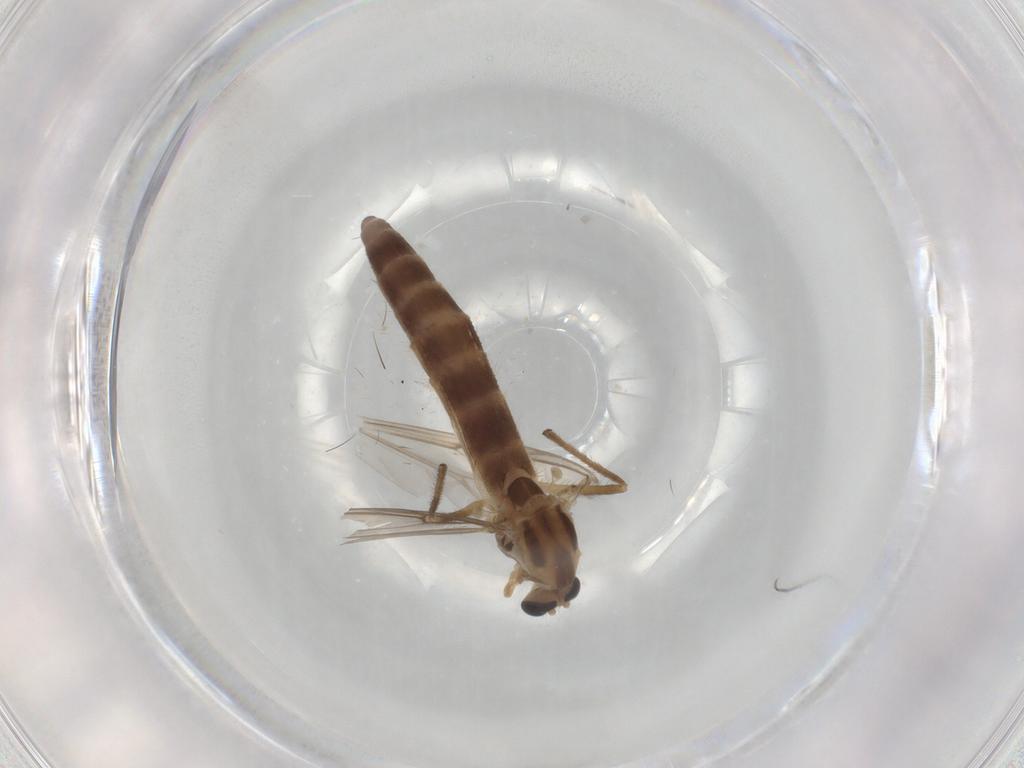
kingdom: Animalia
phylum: Arthropoda
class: Insecta
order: Diptera
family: Chironomidae
